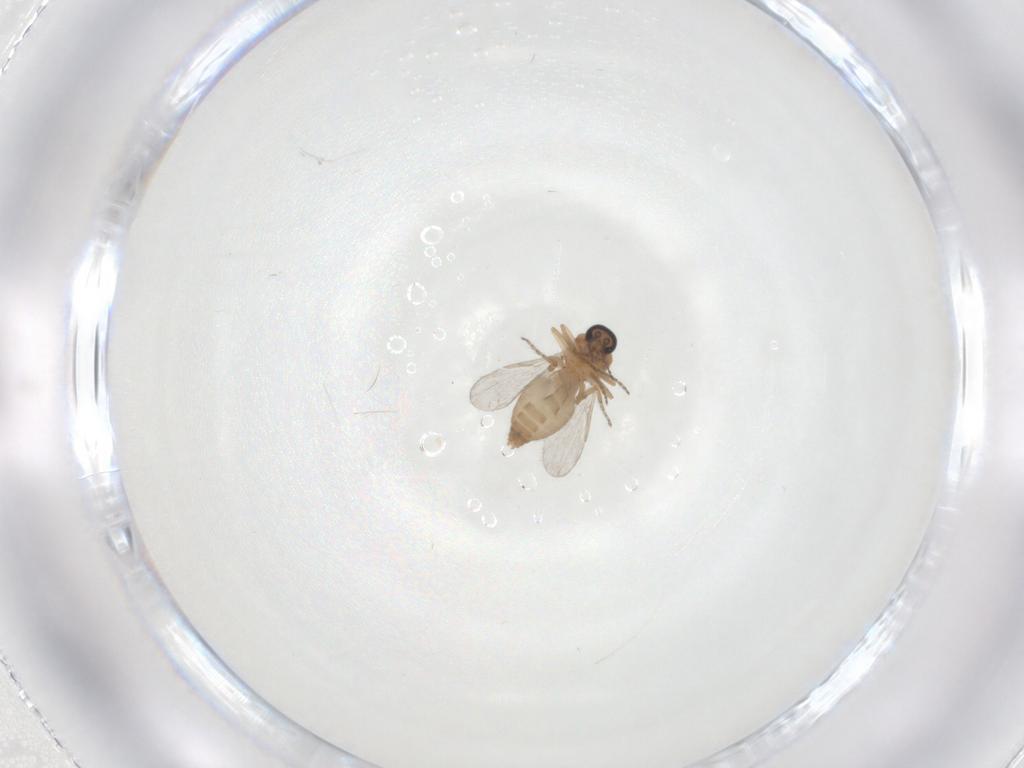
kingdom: Animalia
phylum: Arthropoda
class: Insecta
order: Diptera
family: Ceratopogonidae
